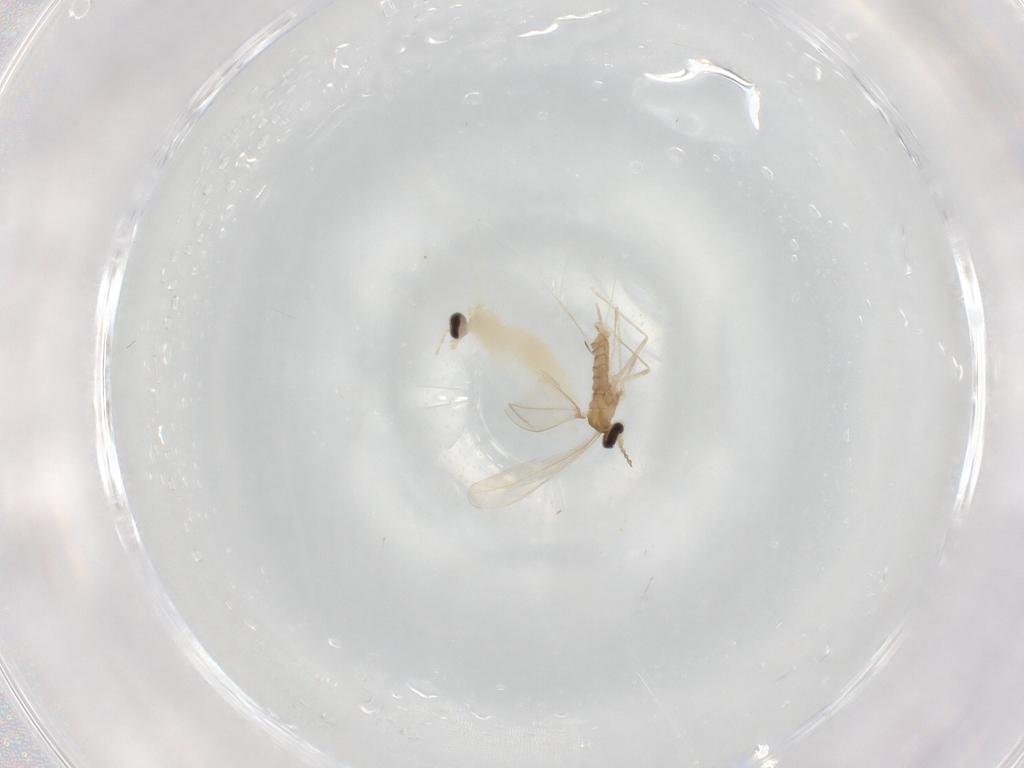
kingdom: Animalia
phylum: Arthropoda
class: Insecta
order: Diptera
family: Cecidomyiidae
